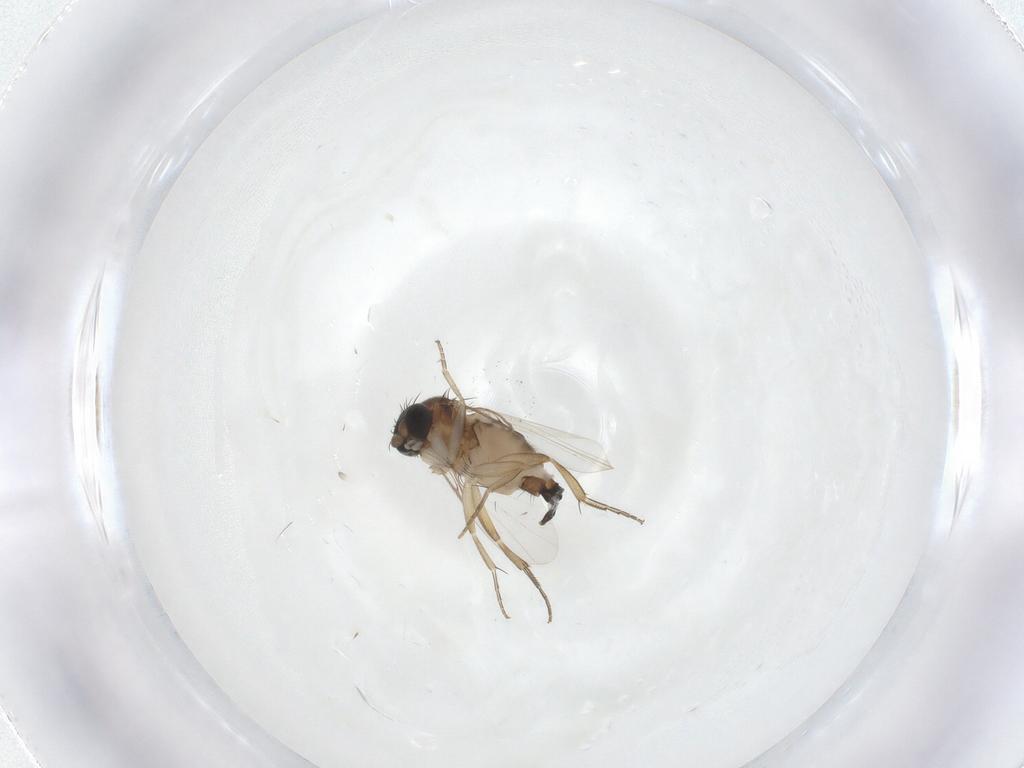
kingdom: Animalia
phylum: Arthropoda
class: Insecta
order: Diptera
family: Phoridae
